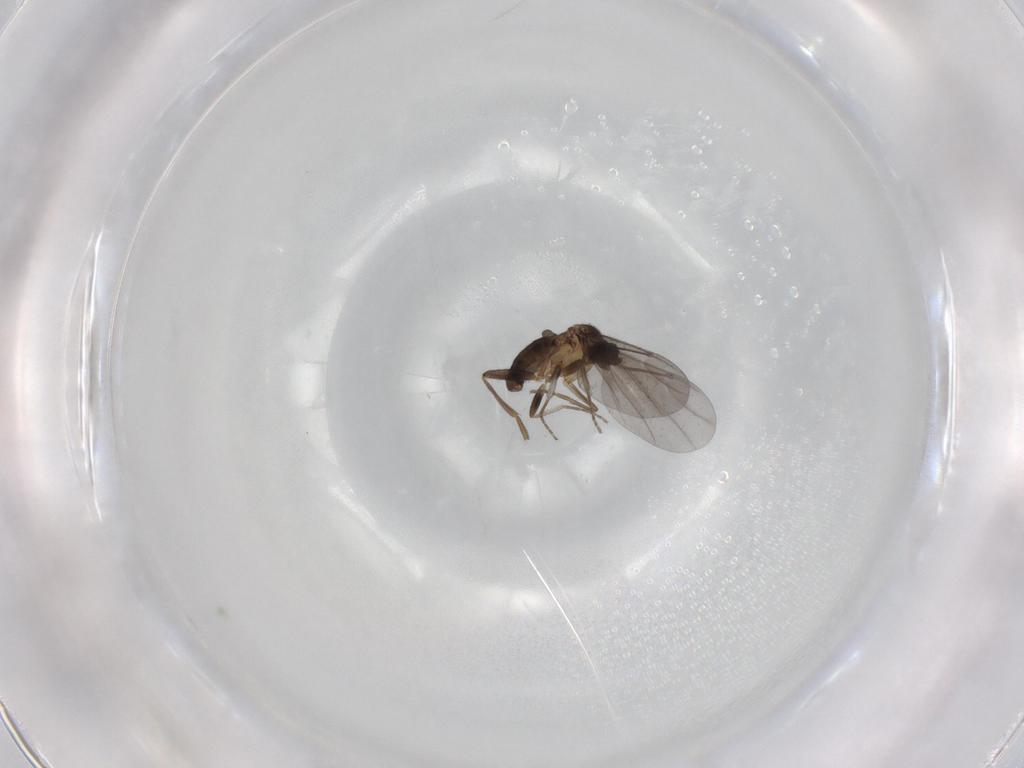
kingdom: Animalia
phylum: Arthropoda
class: Insecta
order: Diptera
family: Phoridae
